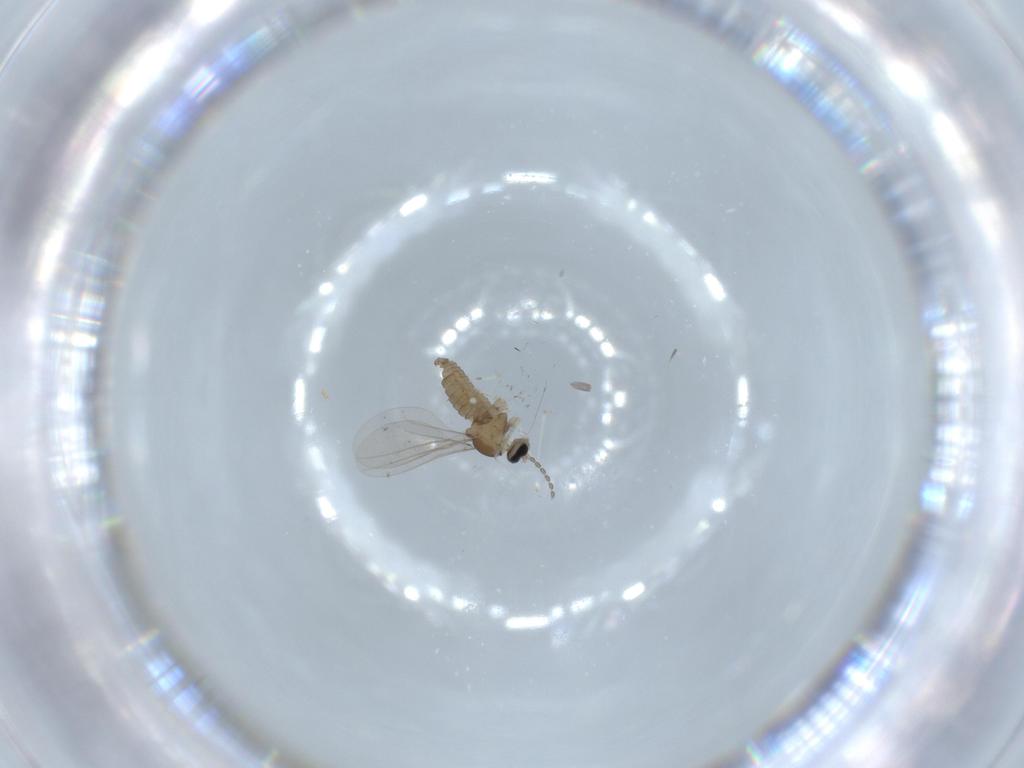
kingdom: Animalia
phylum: Arthropoda
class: Insecta
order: Diptera
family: Cecidomyiidae
